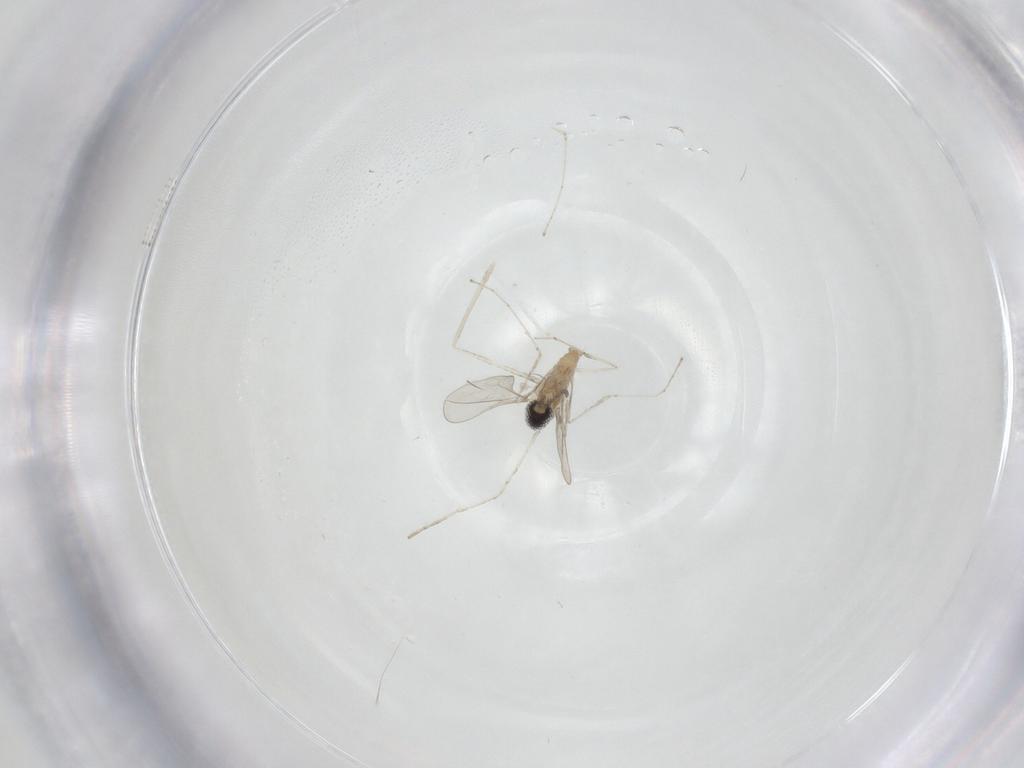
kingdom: Animalia
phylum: Arthropoda
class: Insecta
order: Diptera
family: Cecidomyiidae
